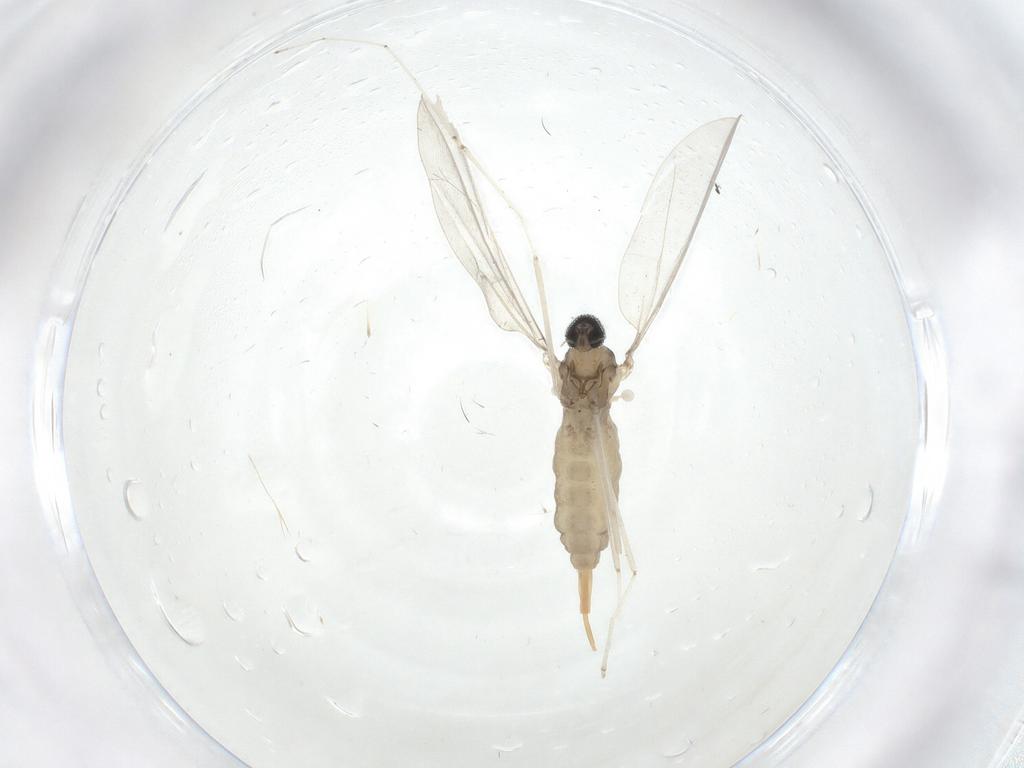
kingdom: Animalia
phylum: Arthropoda
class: Insecta
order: Diptera
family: Cecidomyiidae
